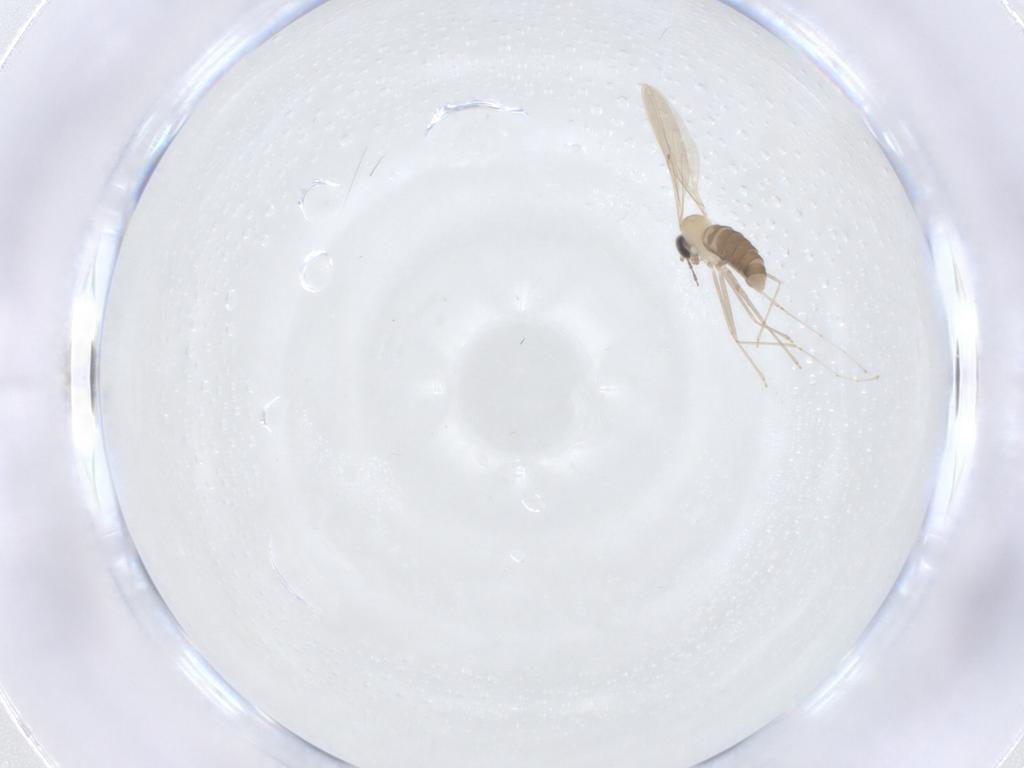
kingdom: Animalia
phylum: Arthropoda
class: Insecta
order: Diptera
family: Cecidomyiidae
